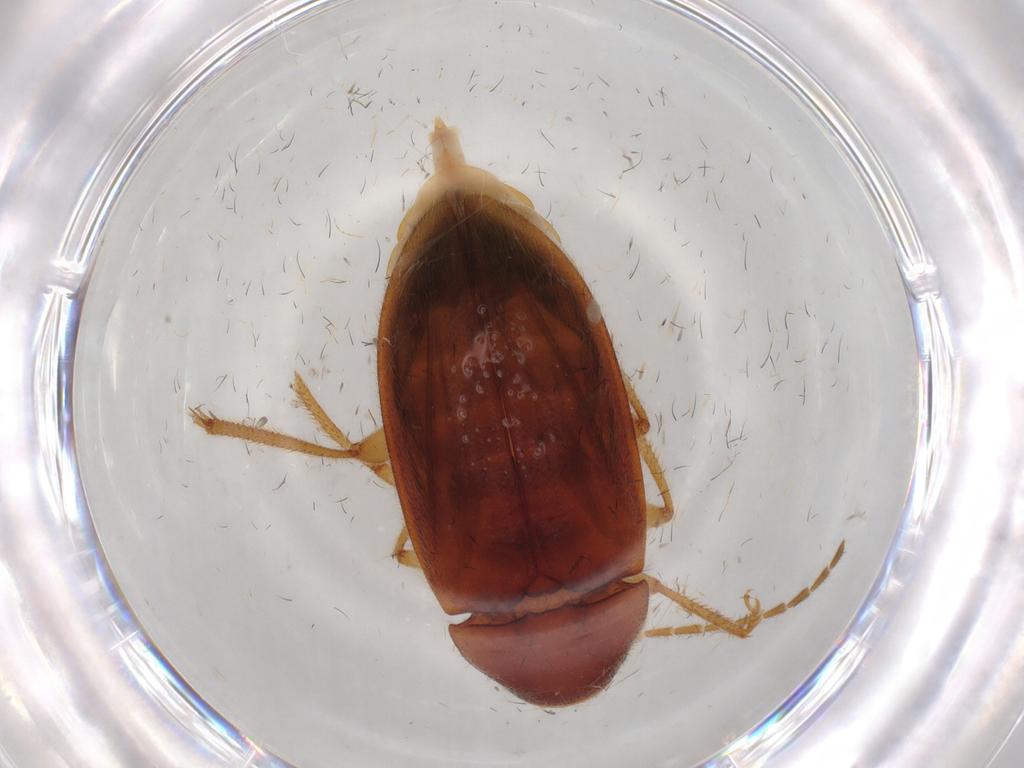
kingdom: Animalia
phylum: Arthropoda
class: Insecta
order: Coleoptera
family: Ptilodactylidae
